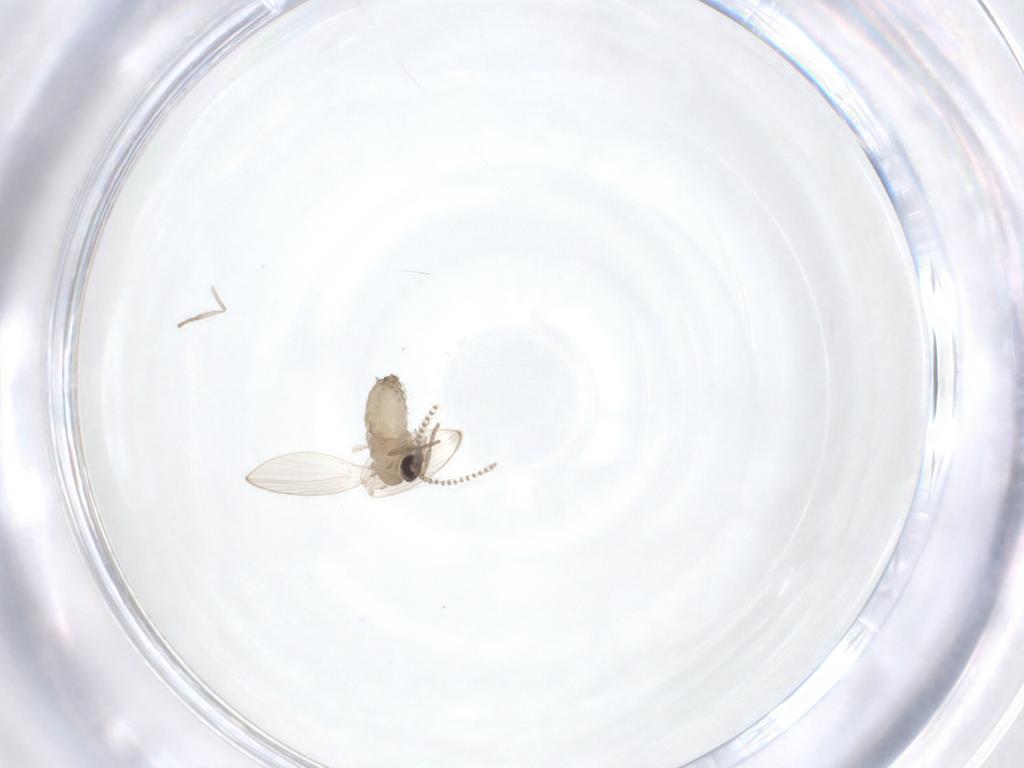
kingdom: Animalia
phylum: Arthropoda
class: Insecta
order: Diptera
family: Psychodidae
